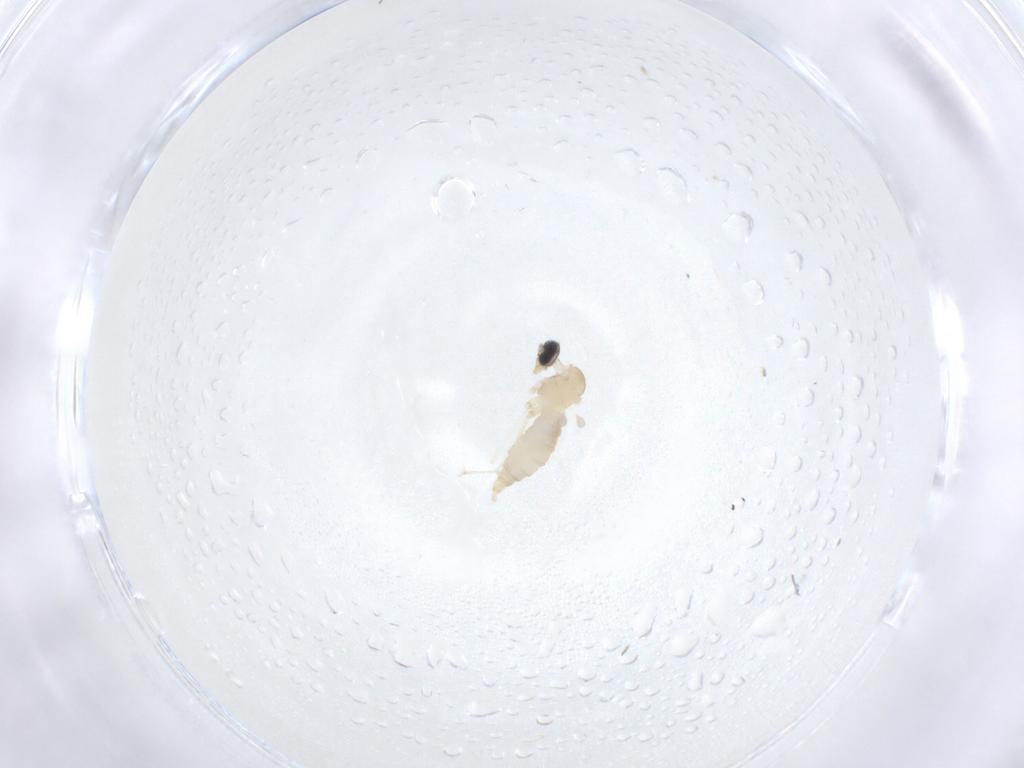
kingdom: Animalia
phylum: Arthropoda
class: Insecta
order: Diptera
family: Cecidomyiidae
